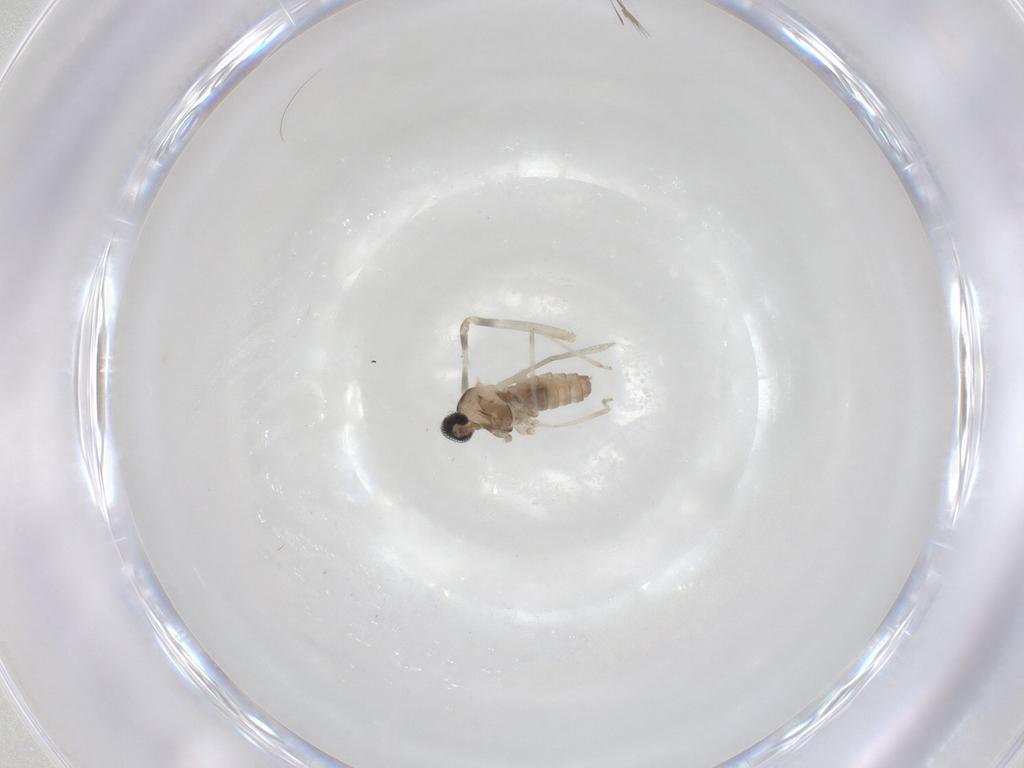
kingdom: Animalia
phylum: Arthropoda
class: Insecta
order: Diptera
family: Cecidomyiidae
